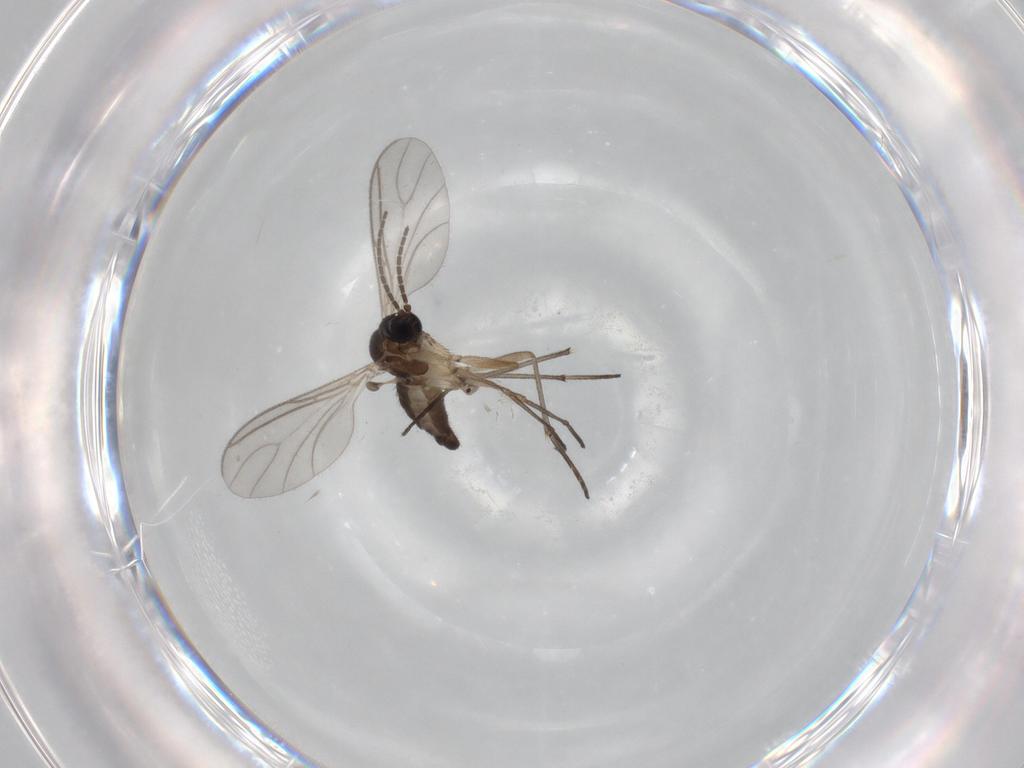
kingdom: Animalia
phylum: Arthropoda
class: Insecta
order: Diptera
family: Sciaridae
